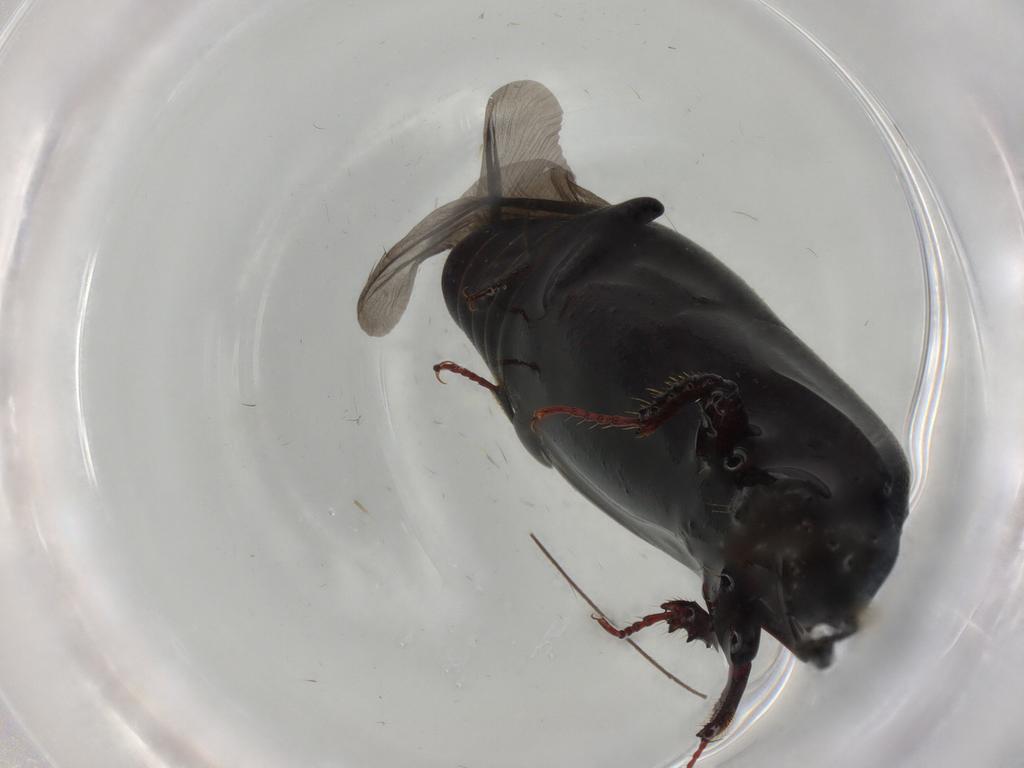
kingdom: Animalia
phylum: Arthropoda
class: Insecta
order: Coleoptera
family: Histeridae
